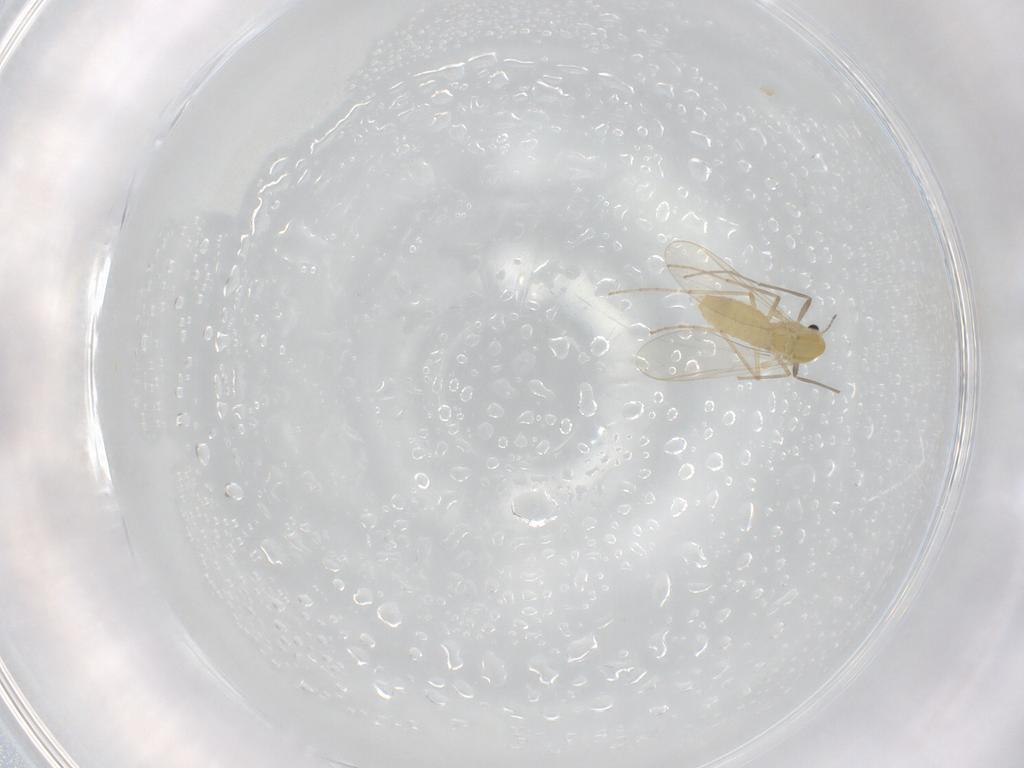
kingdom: Animalia
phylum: Arthropoda
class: Insecta
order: Diptera
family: Chironomidae
